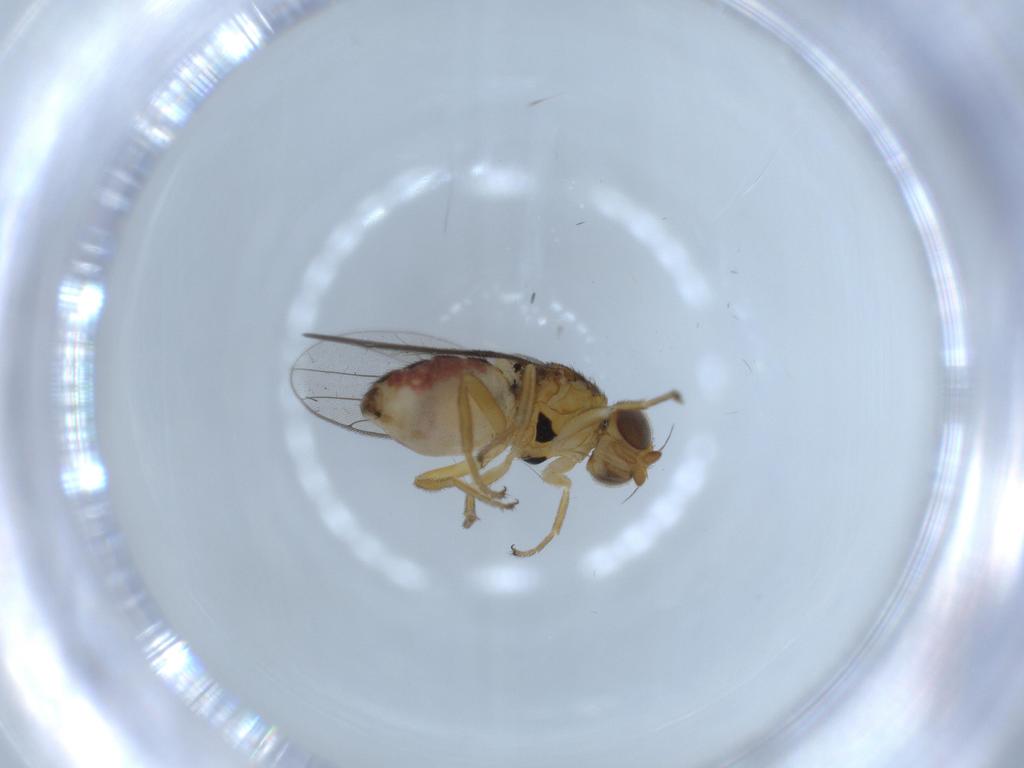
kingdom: Animalia
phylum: Arthropoda
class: Insecta
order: Diptera
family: Chloropidae
